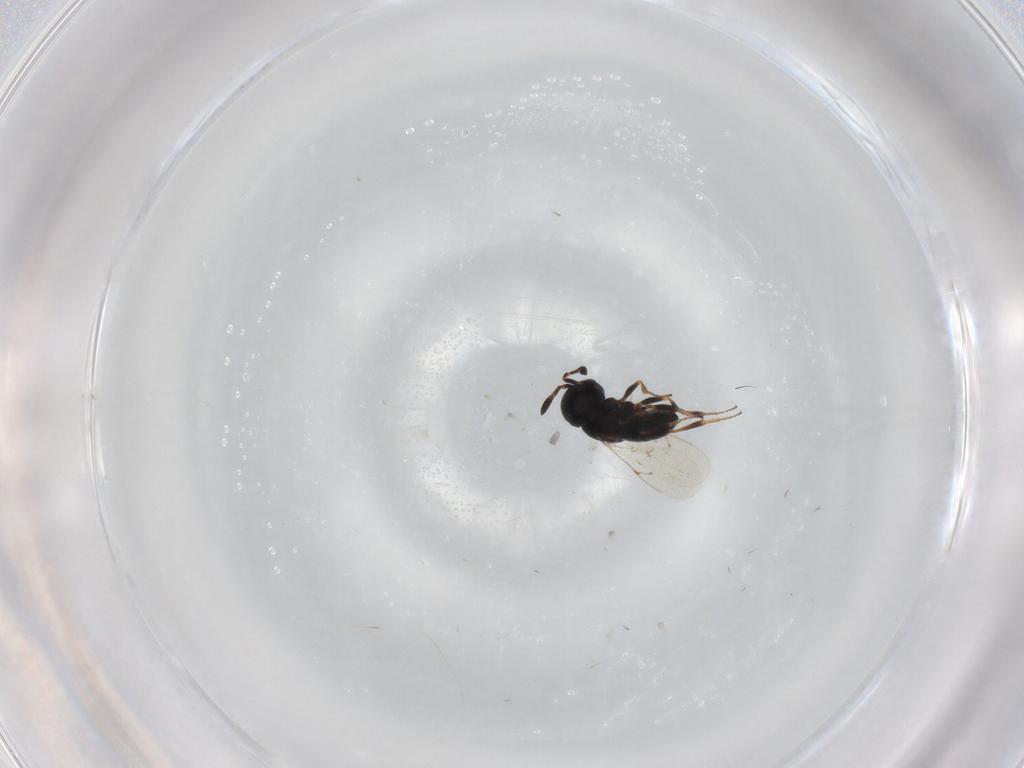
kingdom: Animalia
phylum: Arthropoda
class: Insecta
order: Hymenoptera
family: Scelionidae
